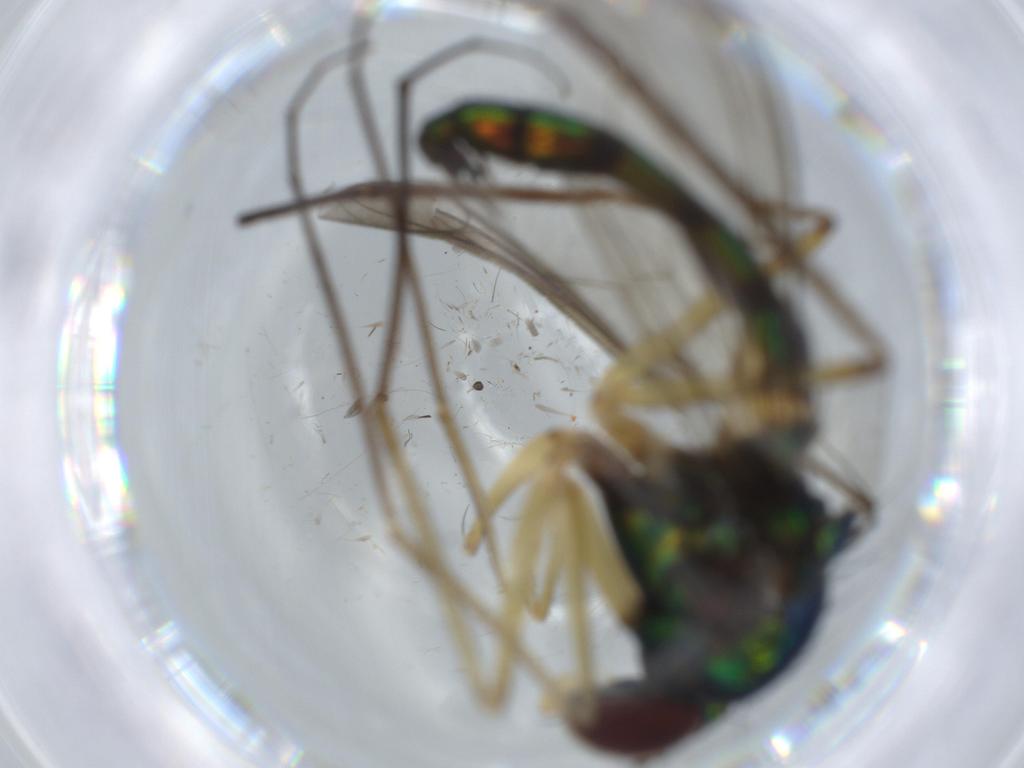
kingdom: Animalia
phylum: Arthropoda
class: Insecta
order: Diptera
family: Dolichopodidae
